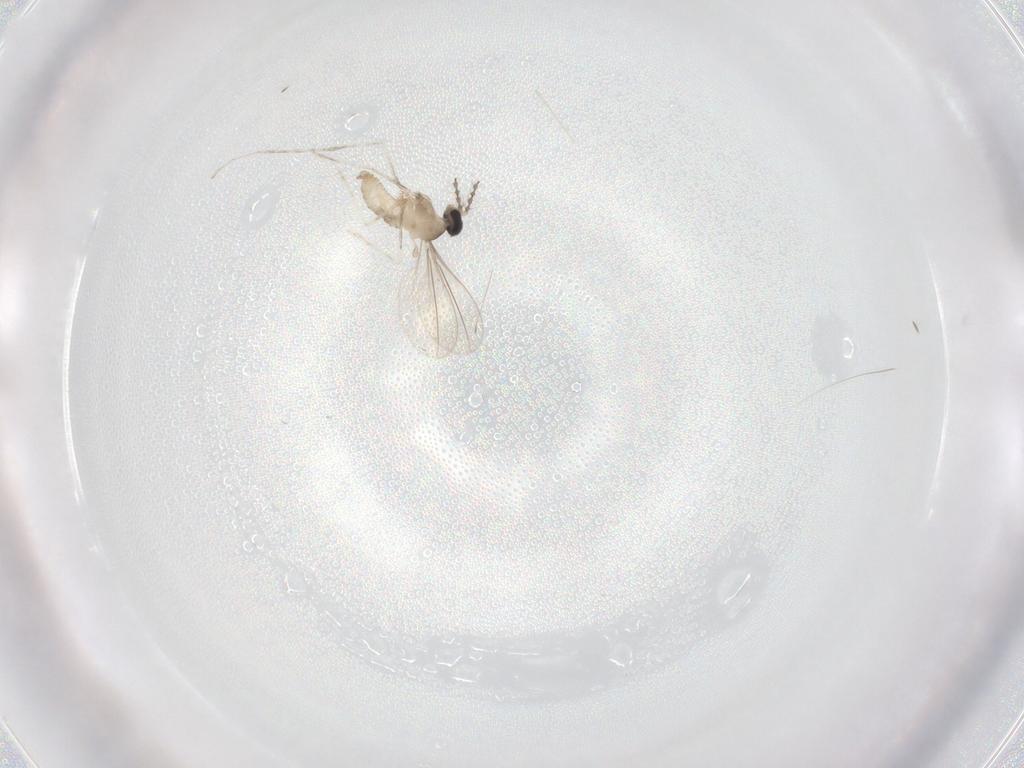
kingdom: Animalia
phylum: Arthropoda
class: Insecta
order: Diptera
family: Cecidomyiidae
